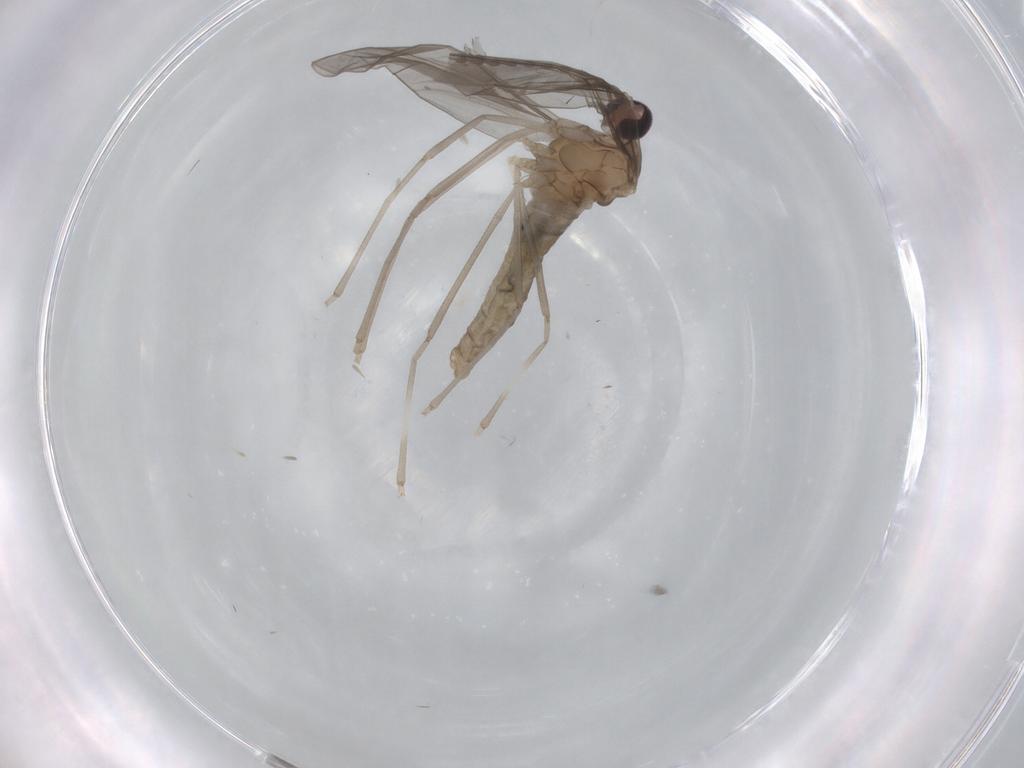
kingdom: Animalia
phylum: Arthropoda
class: Insecta
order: Diptera
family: Cecidomyiidae
